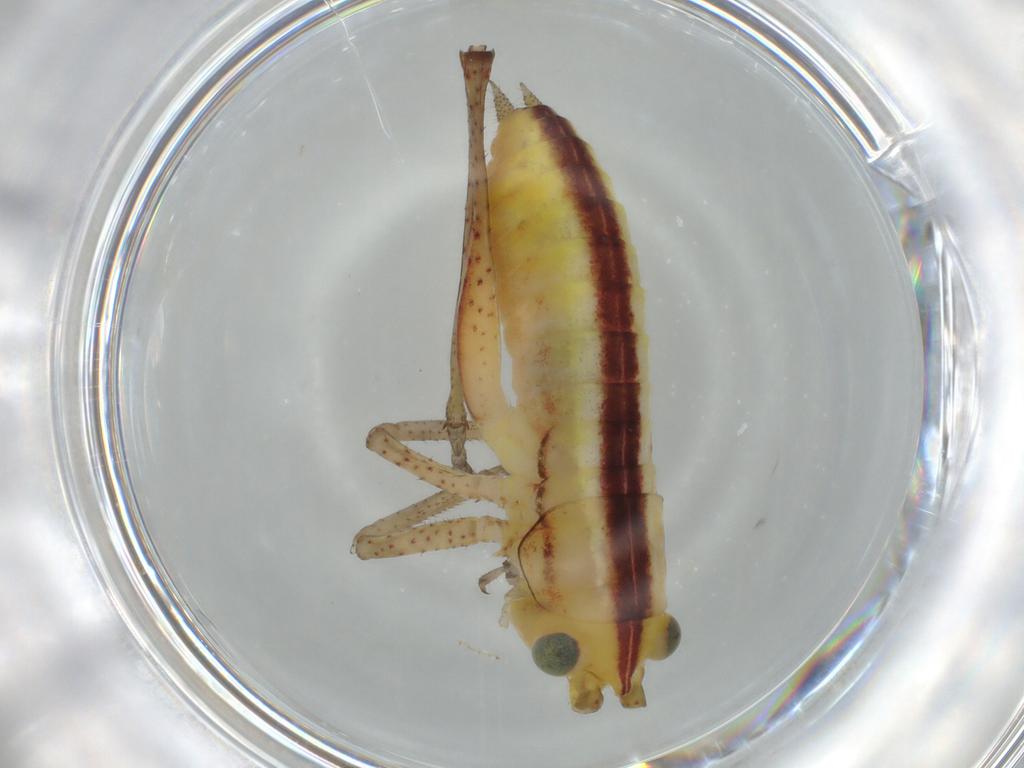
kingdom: Animalia
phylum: Arthropoda
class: Insecta
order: Orthoptera
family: Tettigoniidae
